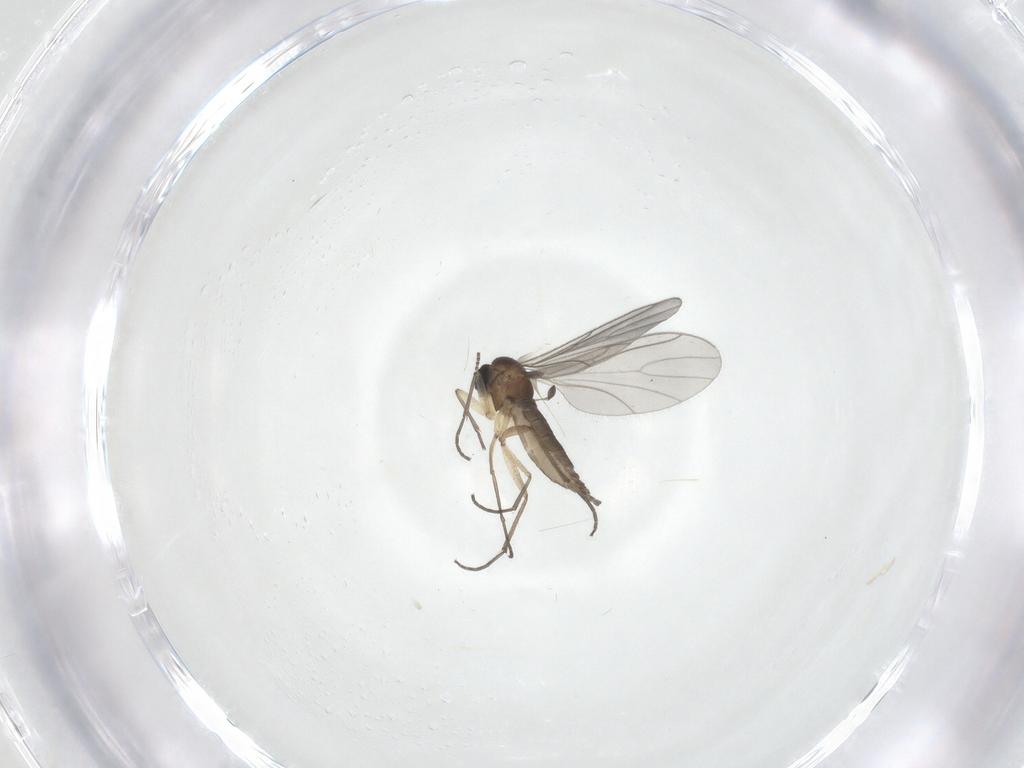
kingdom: Animalia
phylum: Arthropoda
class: Insecta
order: Diptera
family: Sciaridae
